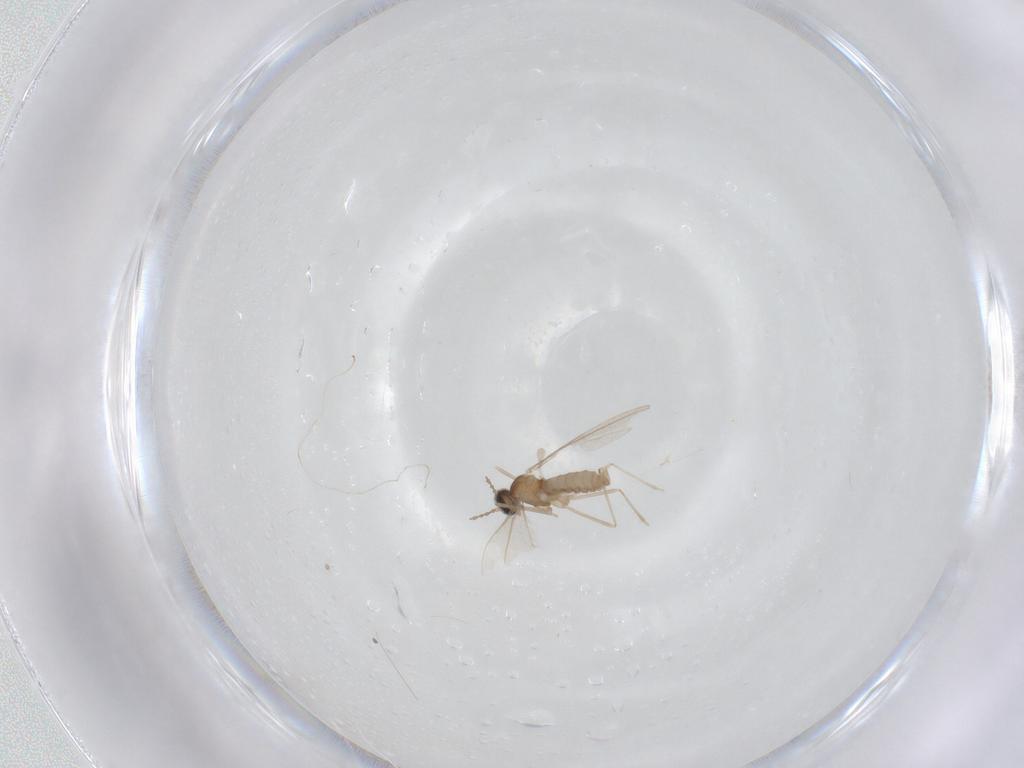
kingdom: Animalia
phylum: Arthropoda
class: Insecta
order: Diptera
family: Cecidomyiidae
